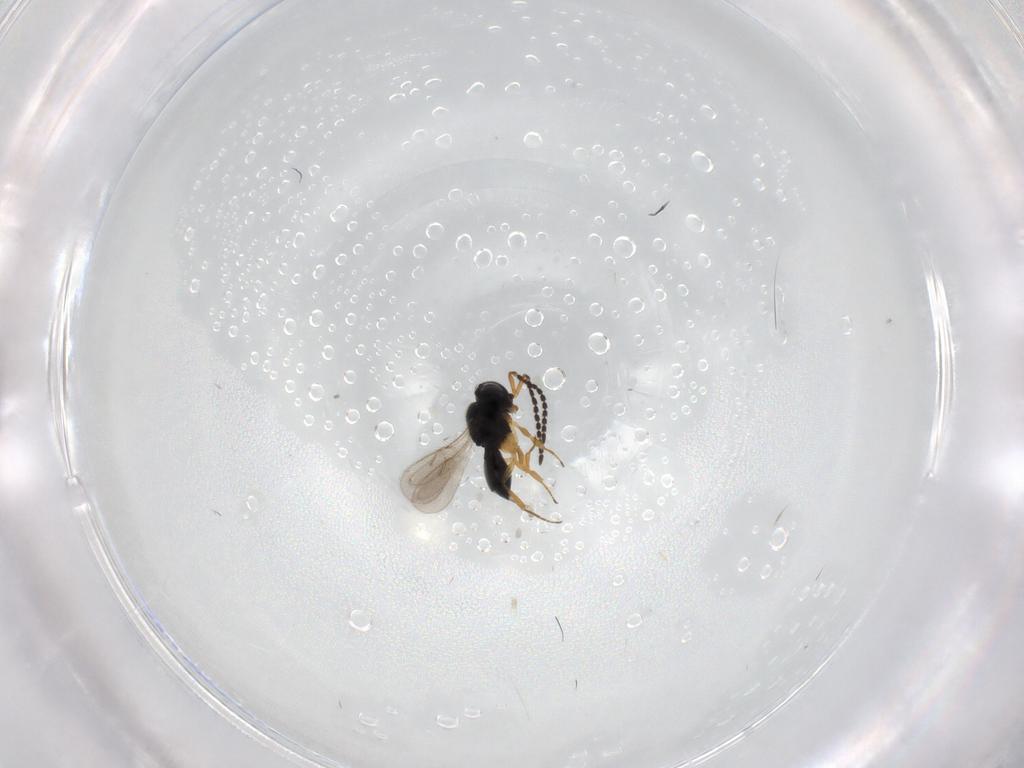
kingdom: Animalia
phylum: Arthropoda
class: Insecta
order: Hymenoptera
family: Scelionidae
